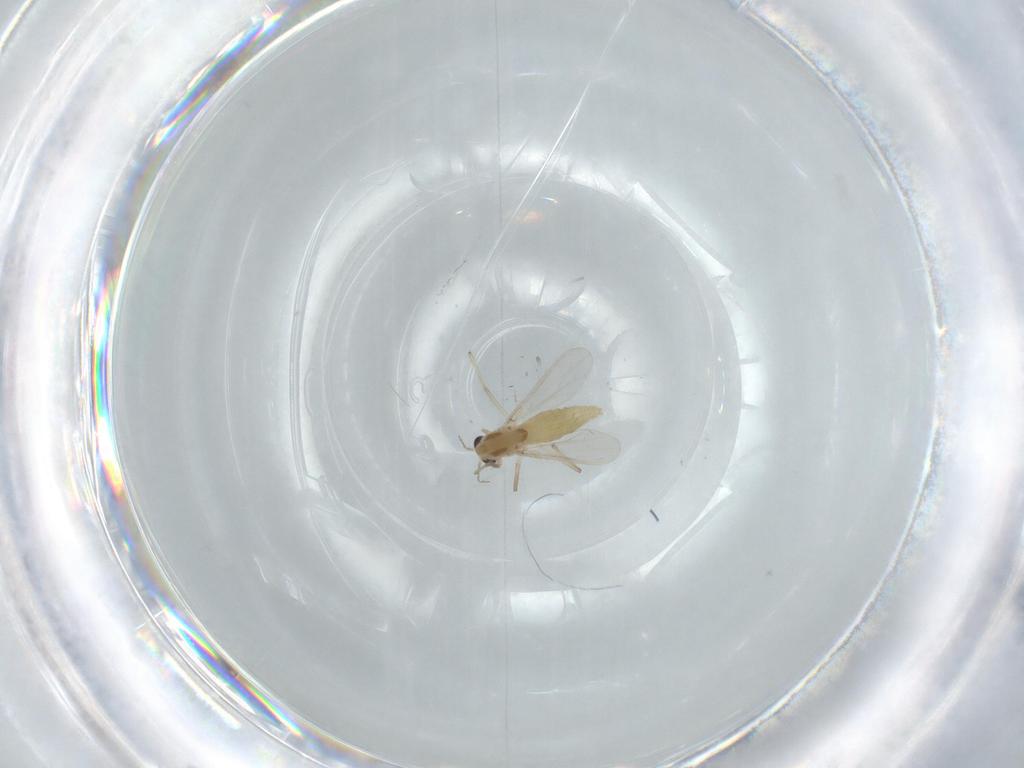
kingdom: Animalia
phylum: Arthropoda
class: Insecta
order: Diptera
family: Chironomidae
